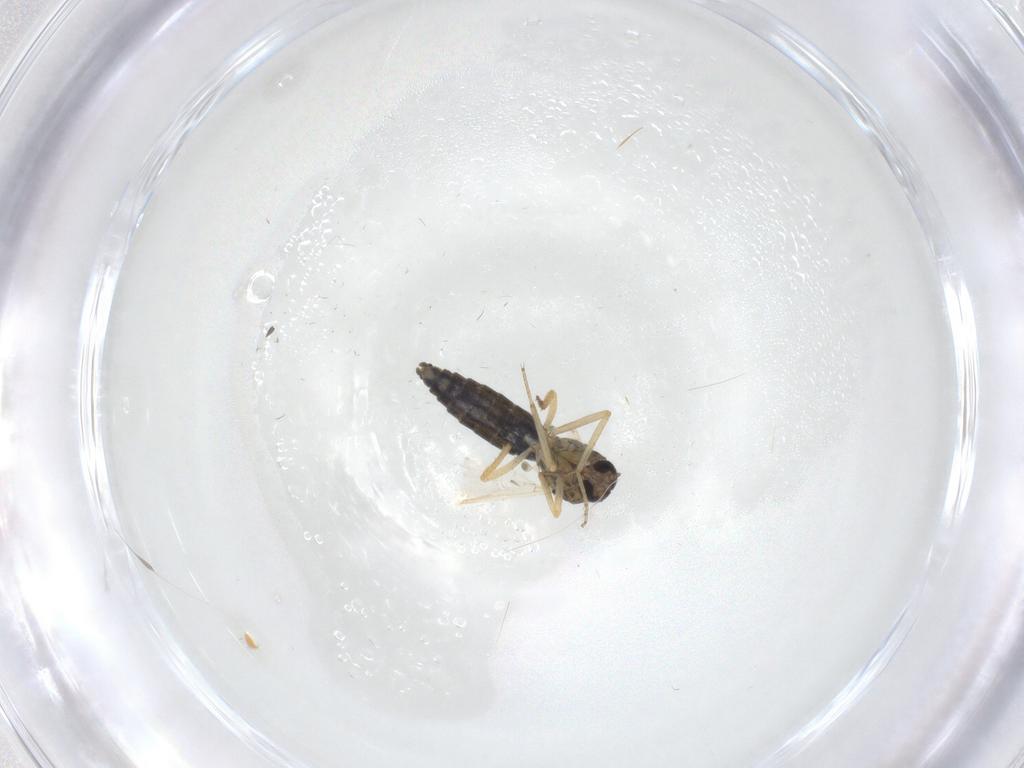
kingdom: Animalia
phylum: Arthropoda
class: Insecta
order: Diptera
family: Ceratopogonidae
